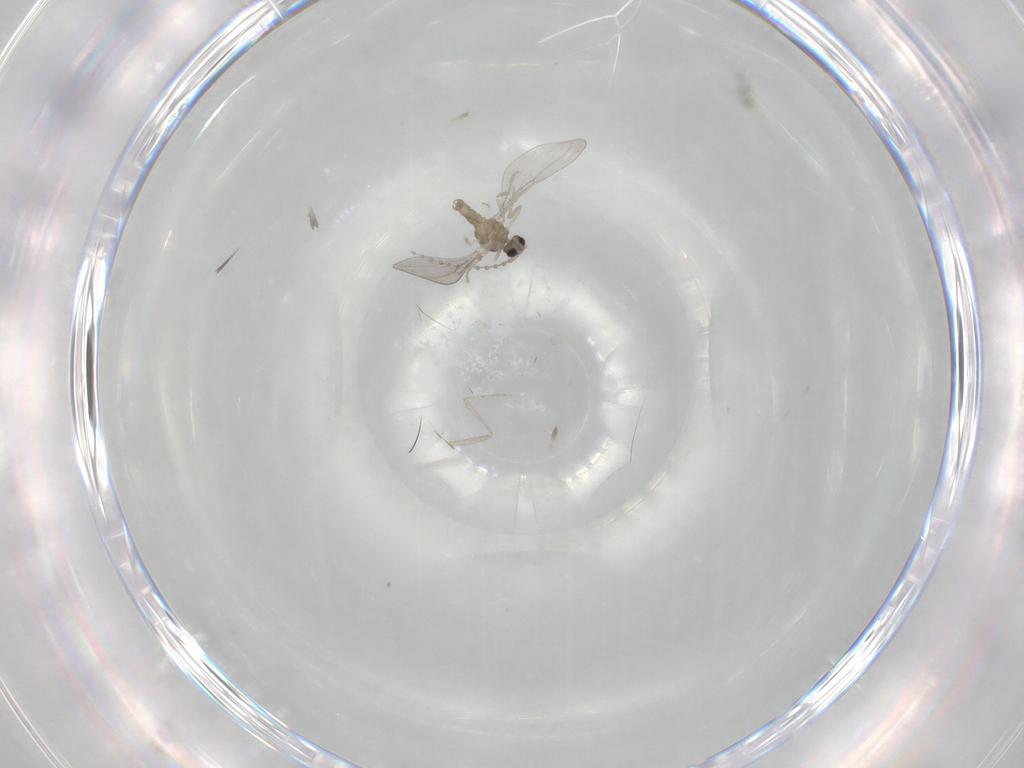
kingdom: Animalia
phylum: Arthropoda
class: Insecta
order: Diptera
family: Cecidomyiidae
